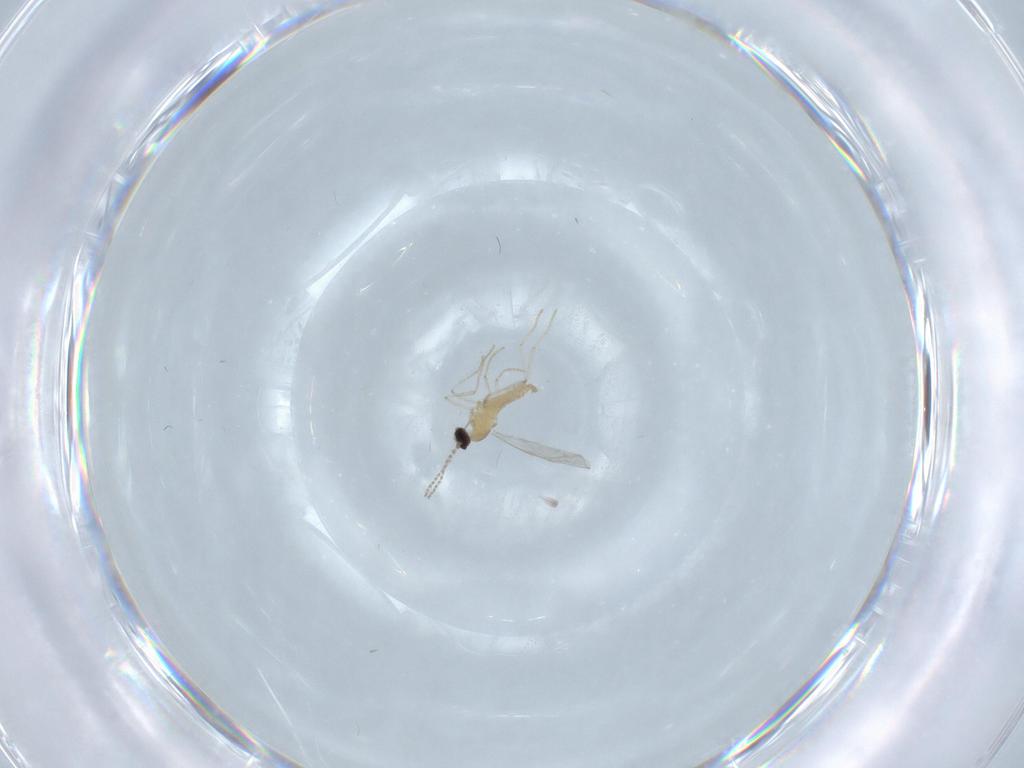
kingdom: Animalia
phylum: Arthropoda
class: Insecta
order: Diptera
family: Cecidomyiidae
